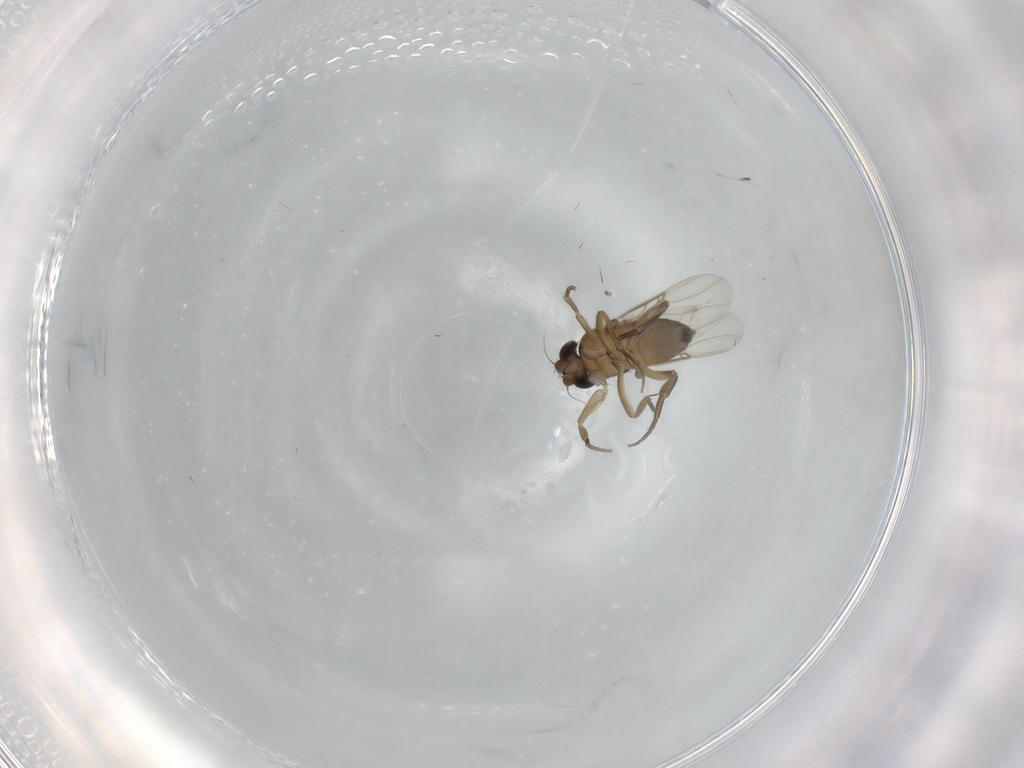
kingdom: Animalia
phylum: Arthropoda
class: Insecta
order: Diptera
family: Phoridae
